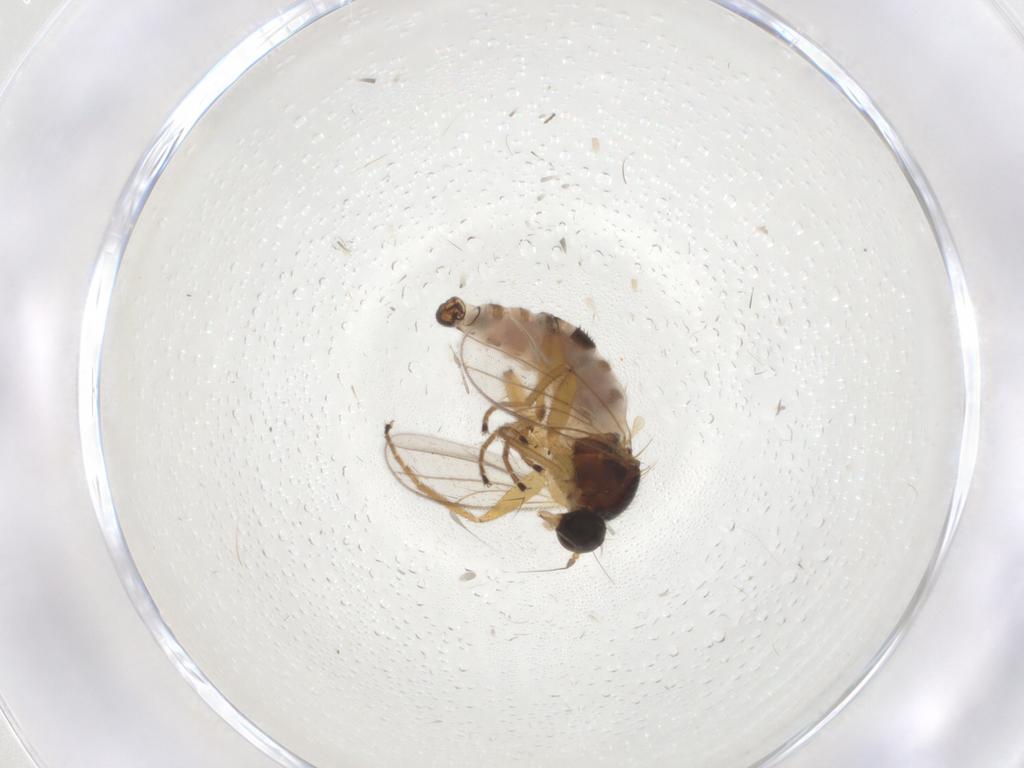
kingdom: Animalia
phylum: Arthropoda
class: Insecta
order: Diptera
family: Hybotidae
